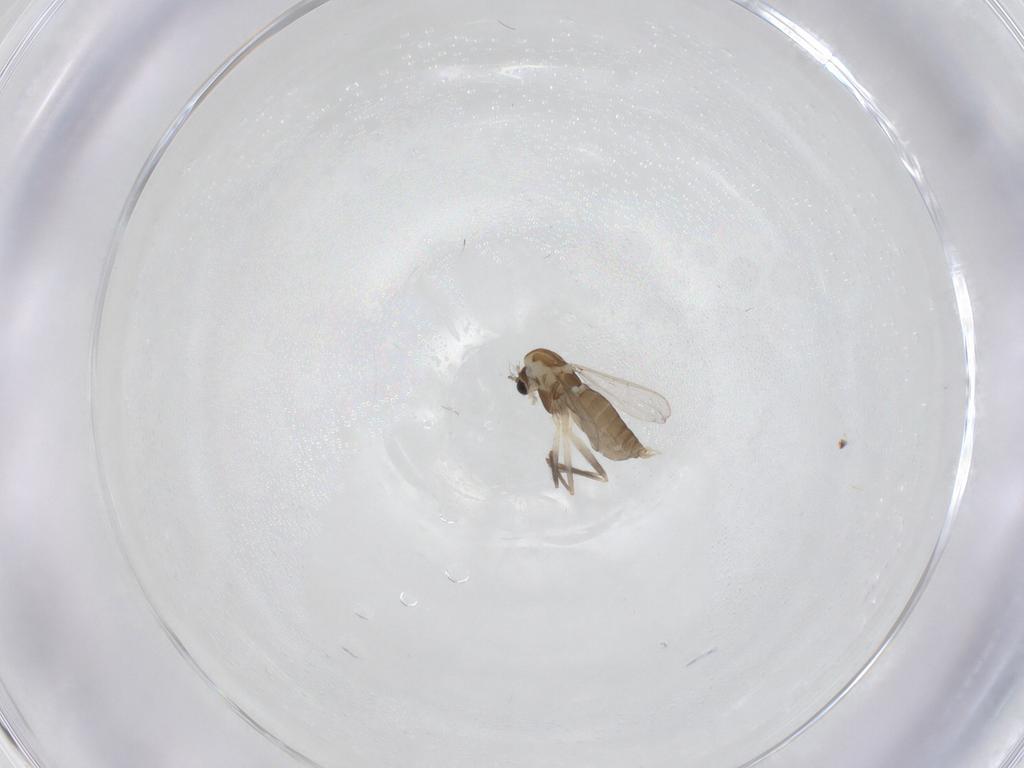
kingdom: Animalia
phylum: Arthropoda
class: Insecta
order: Diptera
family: Chironomidae
